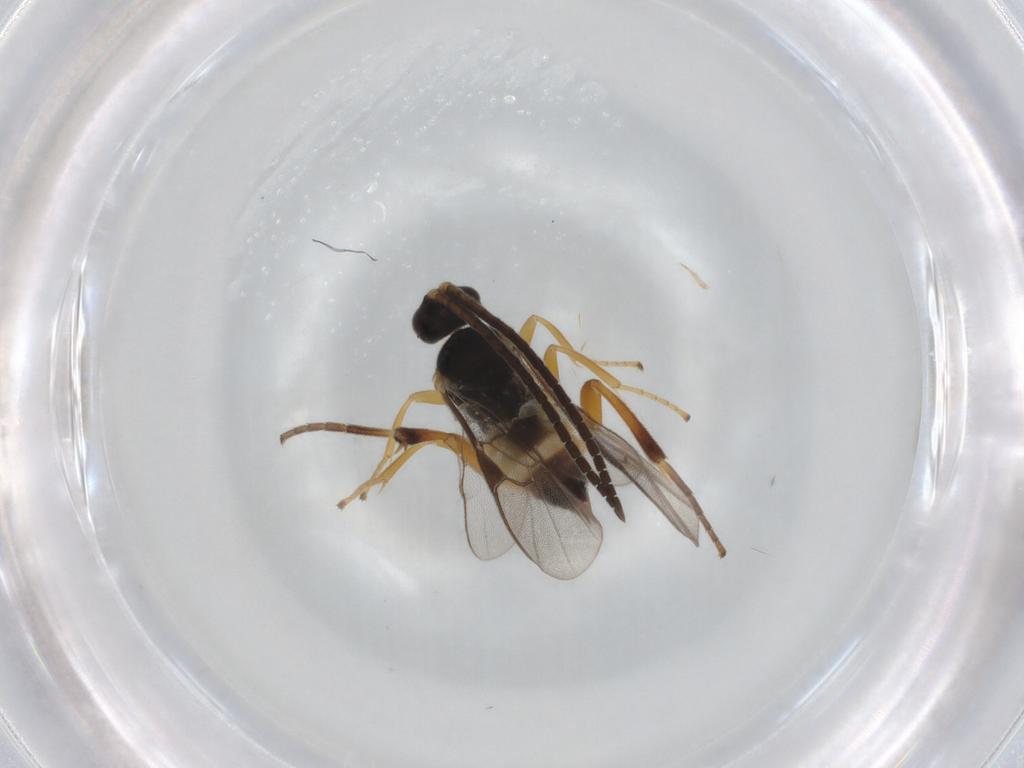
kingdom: Animalia
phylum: Arthropoda
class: Insecta
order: Hymenoptera
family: Braconidae
